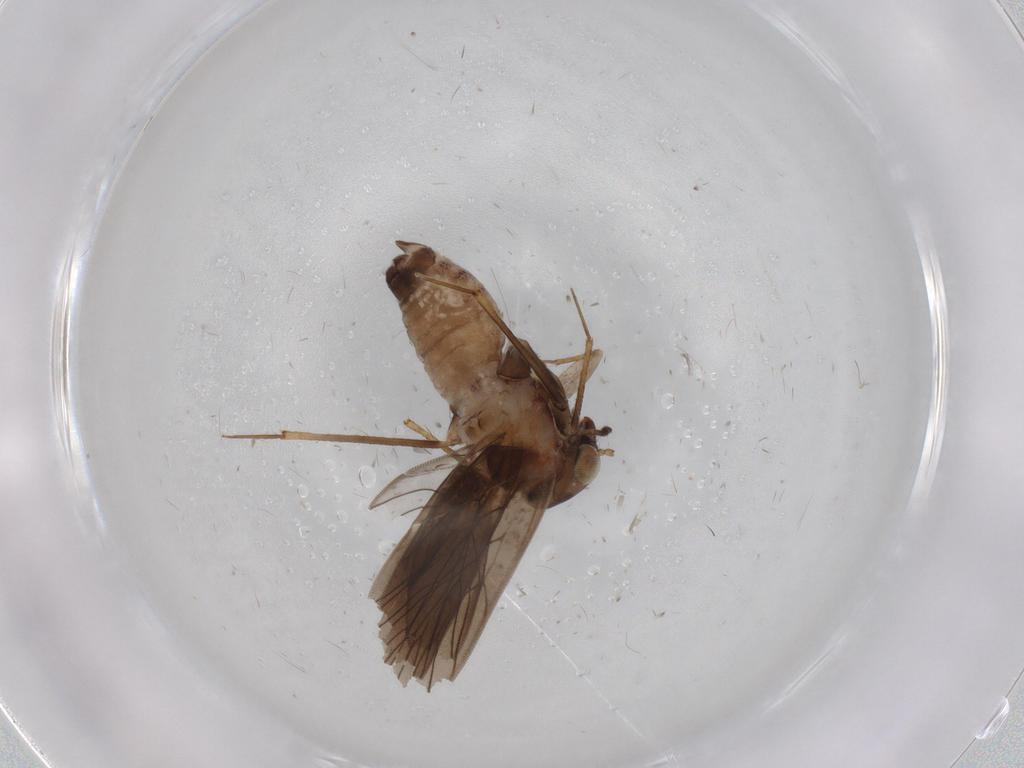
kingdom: Animalia
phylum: Arthropoda
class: Insecta
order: Psocodea
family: Lepidopsocidae
